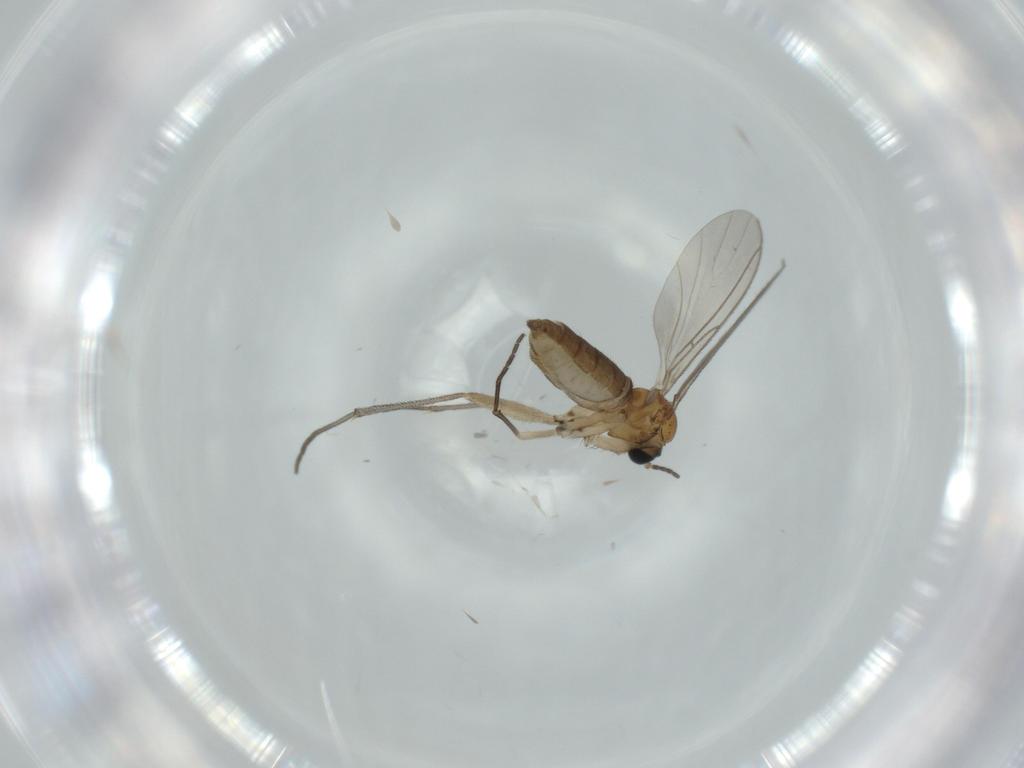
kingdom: Animalia
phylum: Arthropoda
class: Insecta
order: Diptera
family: Sciaridae
